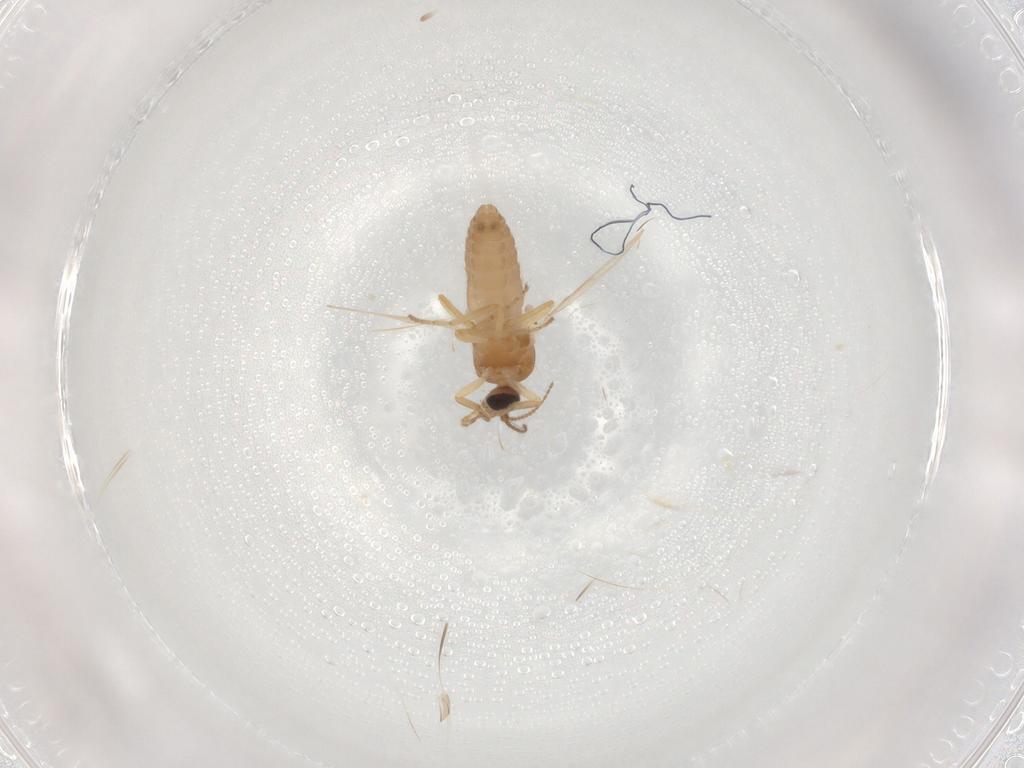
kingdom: Animalia
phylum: Arthropoda
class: Insecta
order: Diptera
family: Ceratopogonidae
